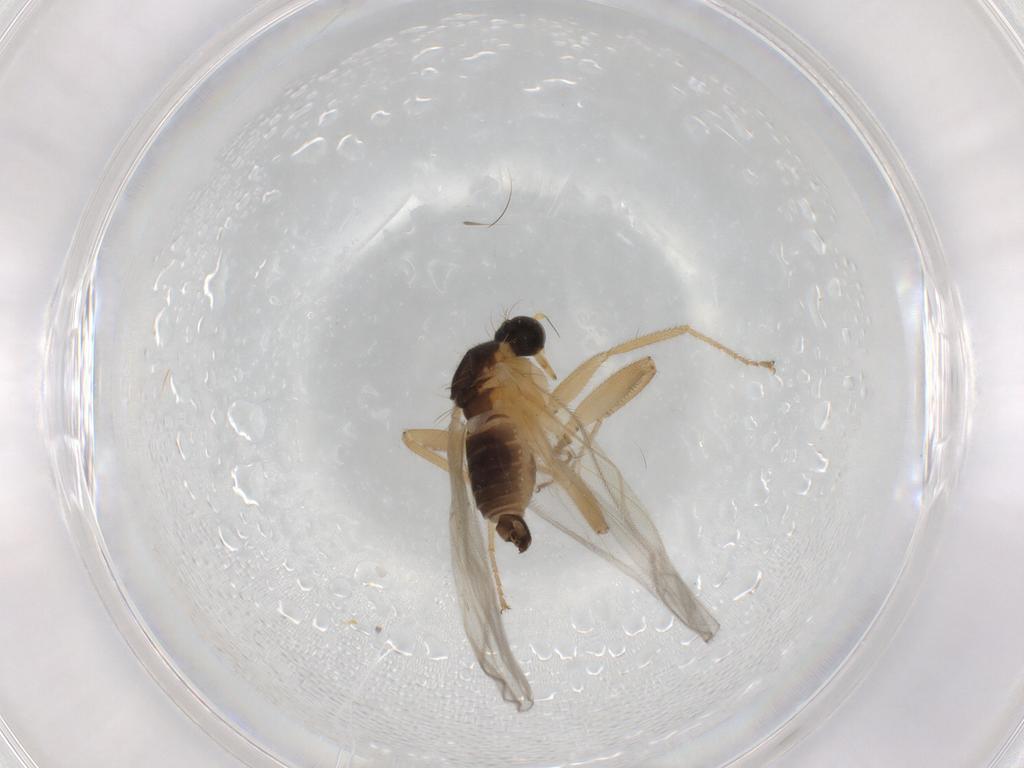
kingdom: Animalia
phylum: Arthropoda
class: Insecta
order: Diptera
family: Chironomidae
